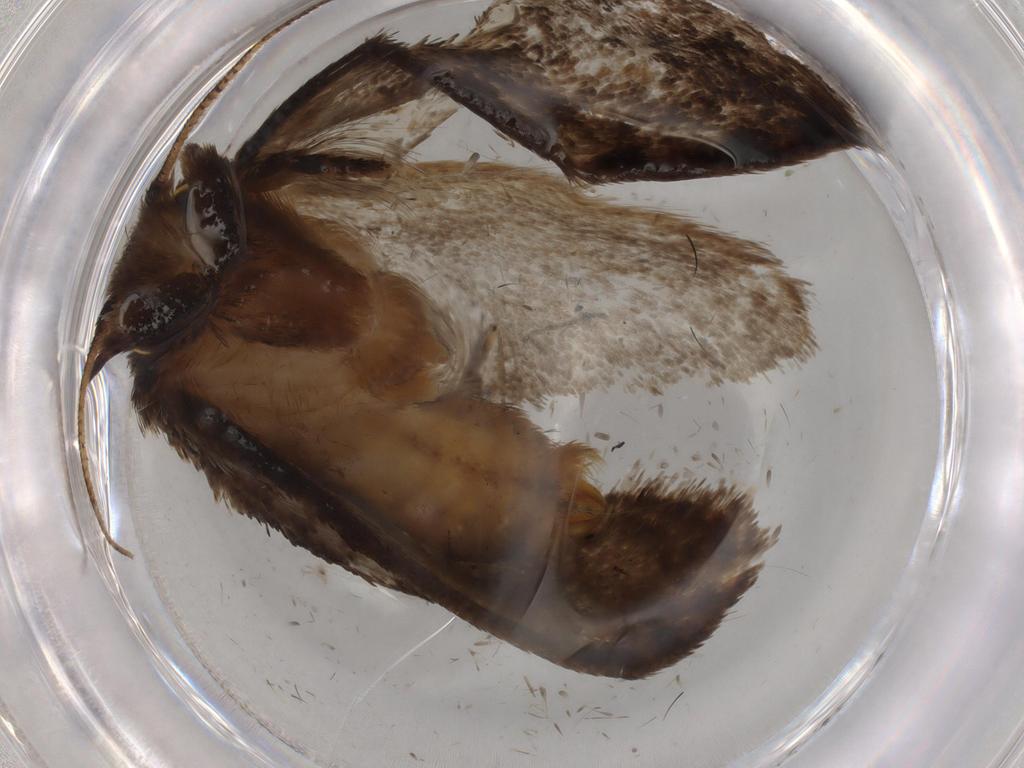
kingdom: Animalia
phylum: Arthropoda
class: Insecta
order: Lepidoptera
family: Tineidae
